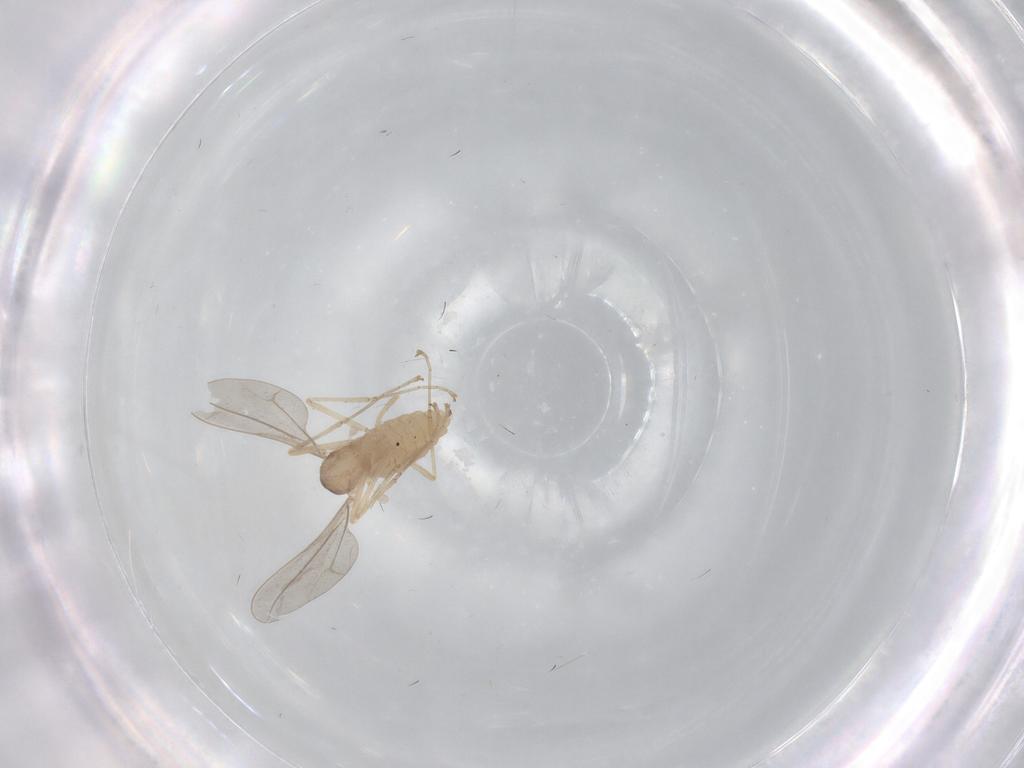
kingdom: Animalia
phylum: Arthropoda
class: Insecta
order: Diptera
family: Cecidomyiidae
